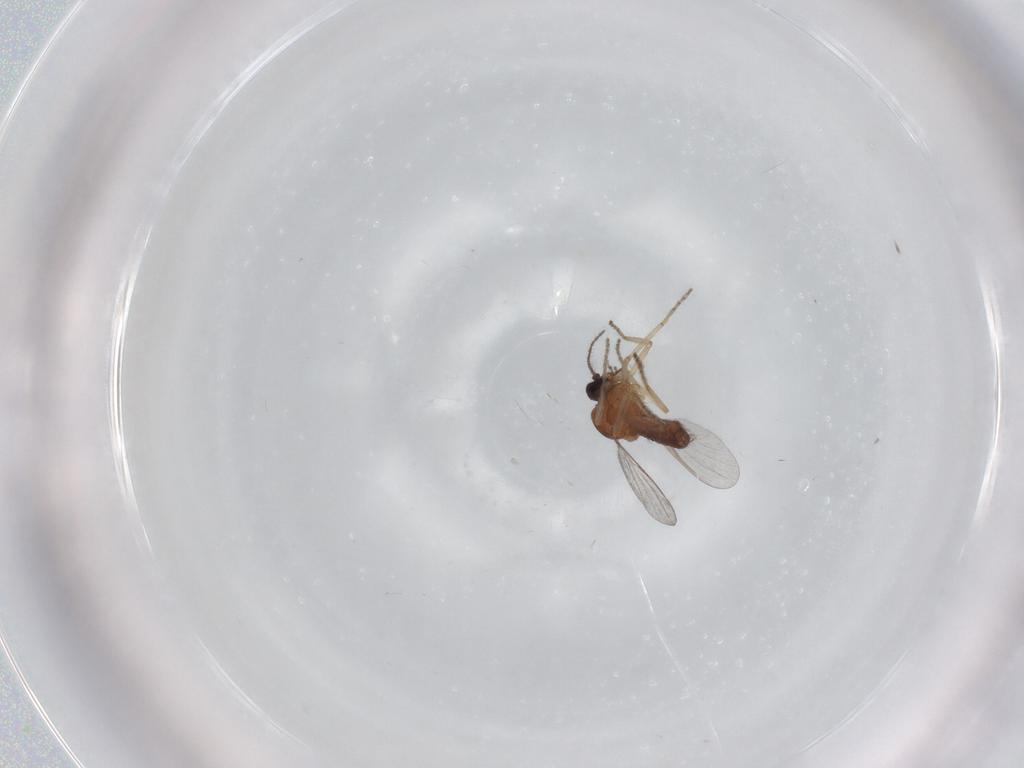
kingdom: Animalia
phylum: Arthropoda
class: Insecta
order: Diptera
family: Ceratopogonidae
